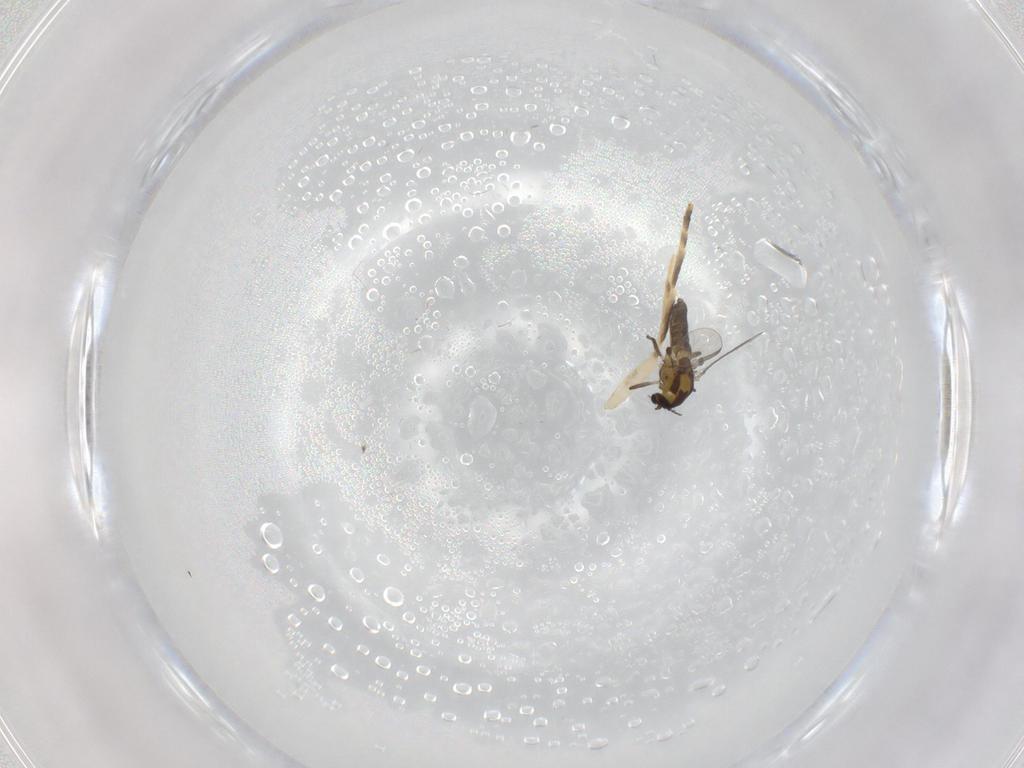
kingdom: Animalia
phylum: Arthropoda
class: Insecta
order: Diptera
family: Chironomidae
